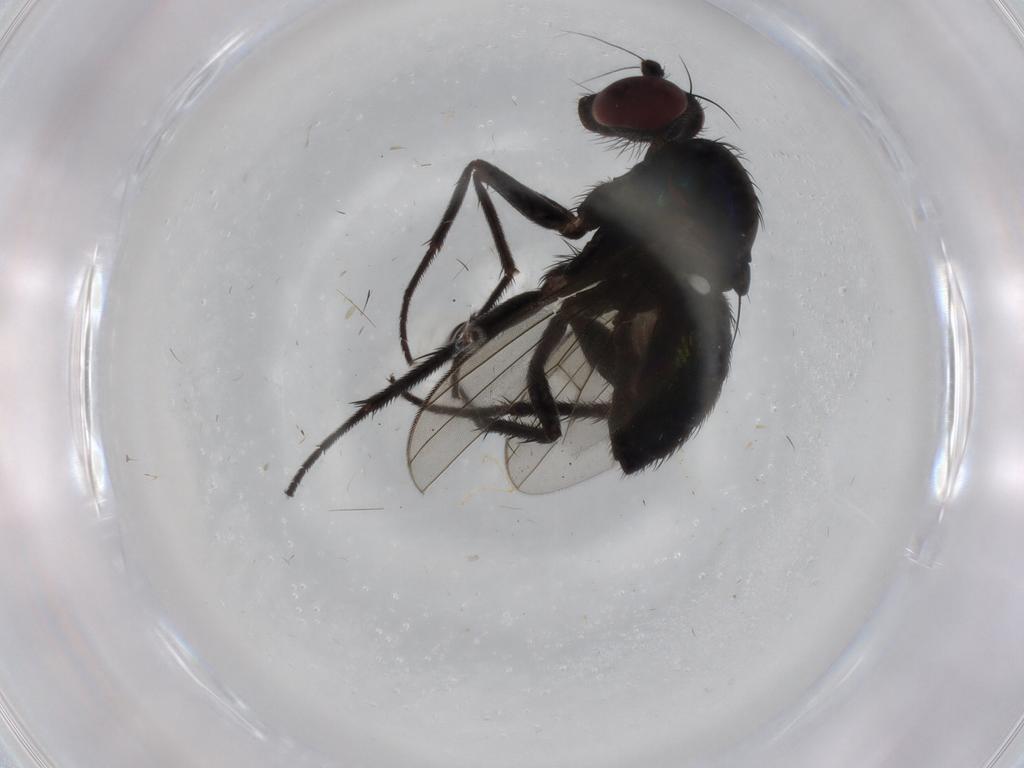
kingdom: Animalia
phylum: Arthropoda
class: Insecta
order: Diptera
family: Dolichopodidae
